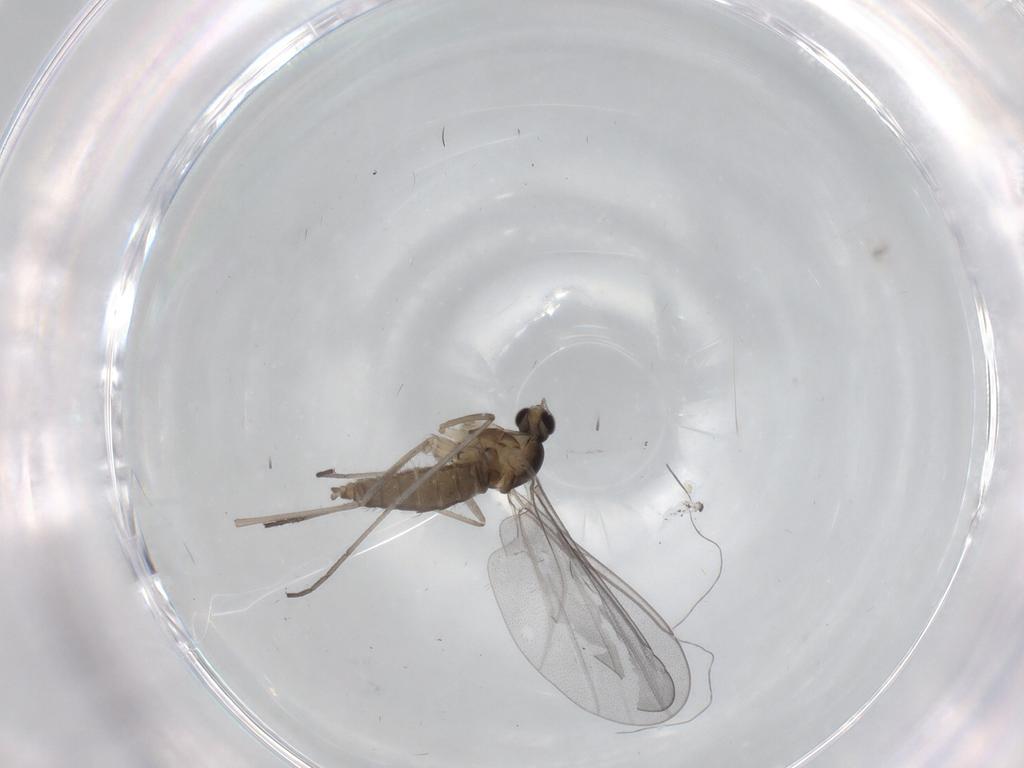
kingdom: Animalia
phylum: Arthropoda
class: Insecta
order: Diptera
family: Cecidomyiidae
